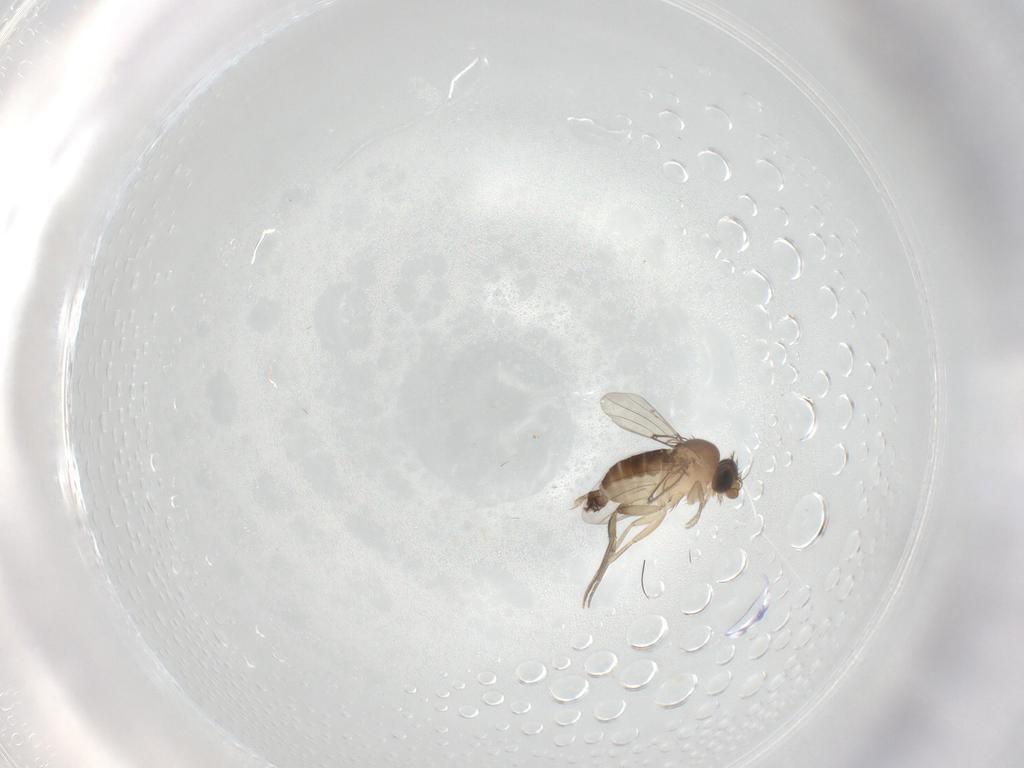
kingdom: Animalia
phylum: Arthropoda
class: Insecta
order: Diptera
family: Phoridae
